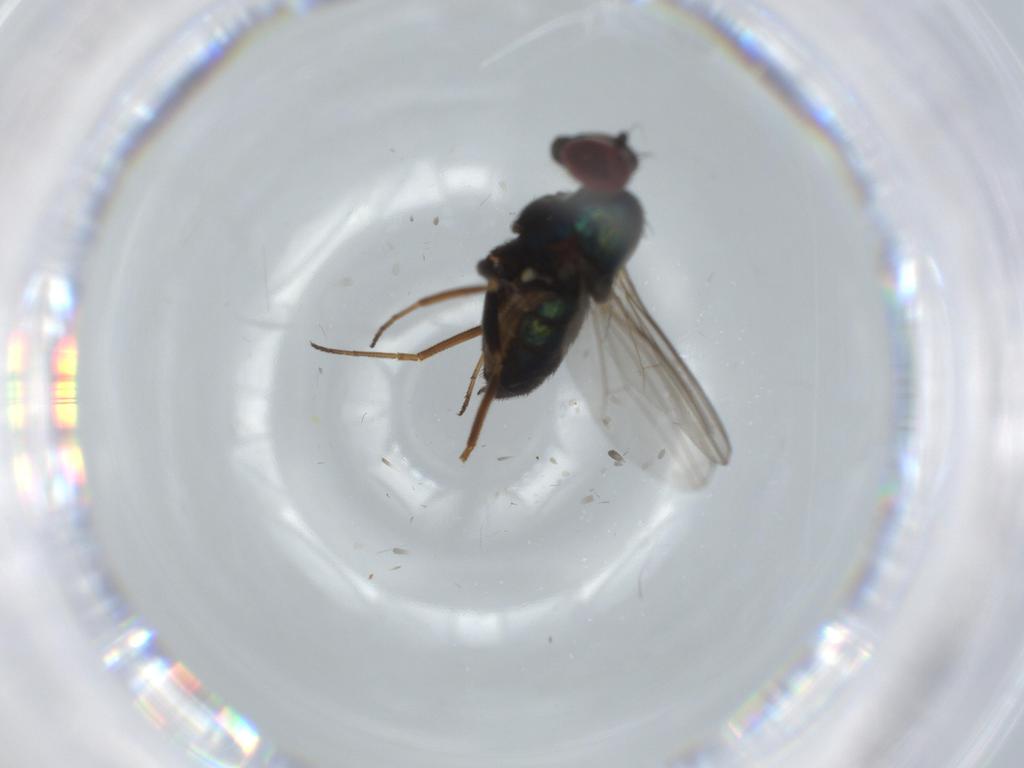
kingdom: Animalia
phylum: Arthropoda
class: Insecta
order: Diptera
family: Dolichopodidae
